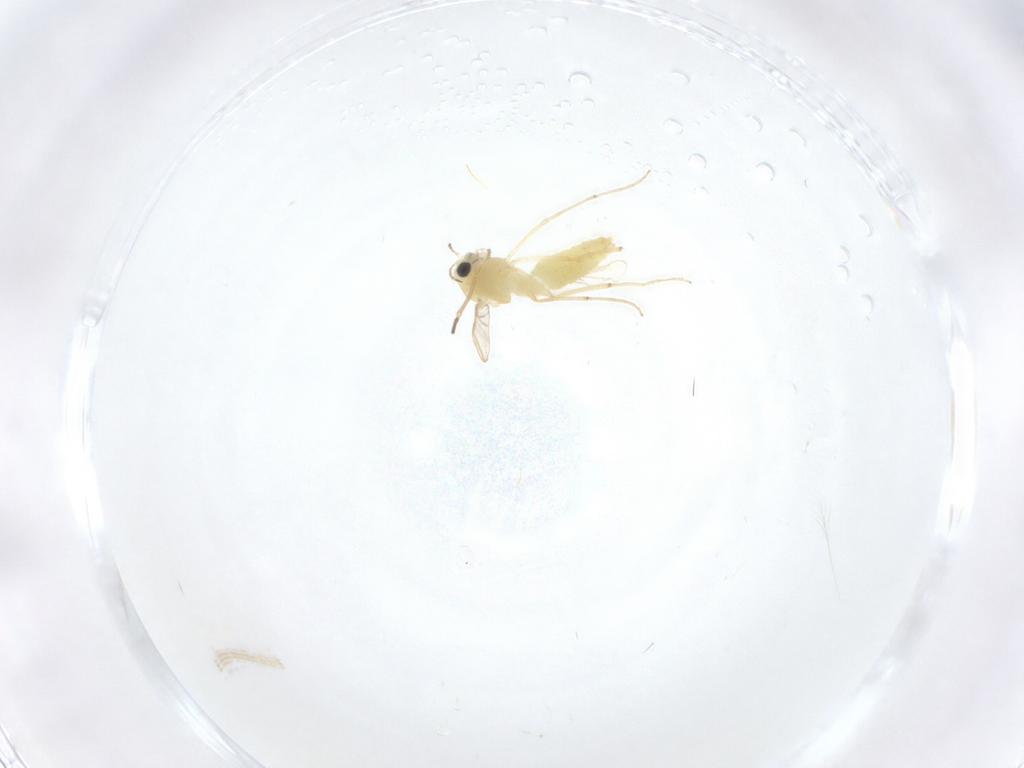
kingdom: Animalia
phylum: Arthropoda
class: Insecta
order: Diptera
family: Chironomidae
